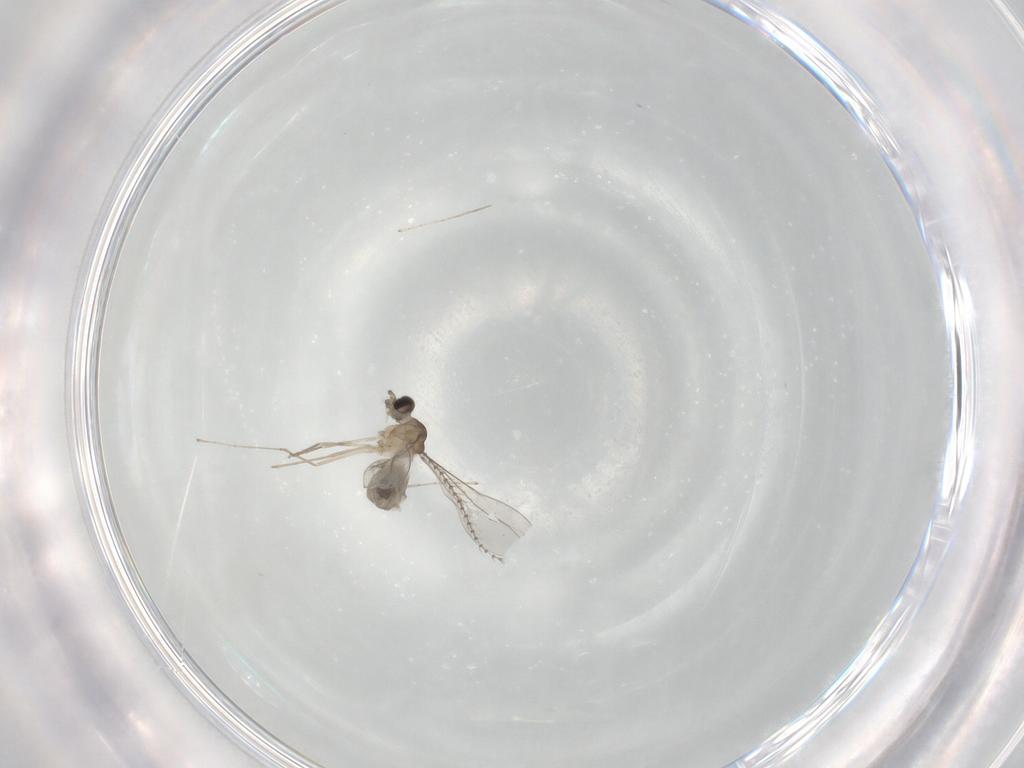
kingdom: Animalia
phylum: Arthropoda
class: Insecta
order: Diptera
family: Cecidomyiidae
